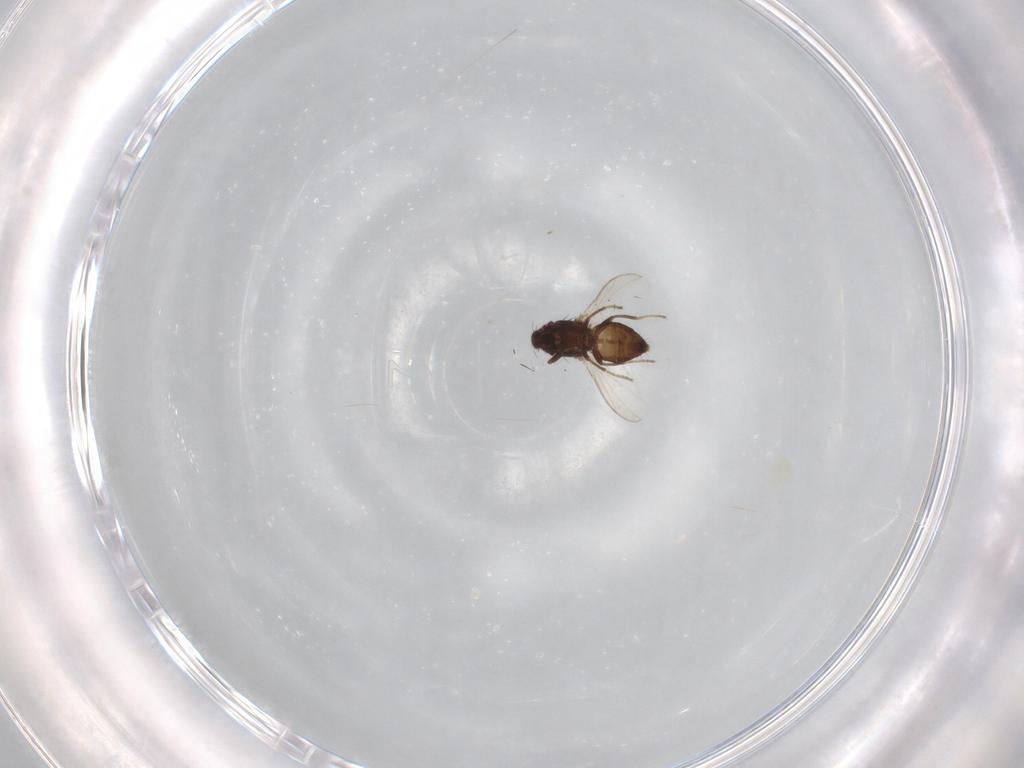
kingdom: Animalia
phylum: Arthropoda
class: Insecta
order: Diptera
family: Cecidomyiidae
